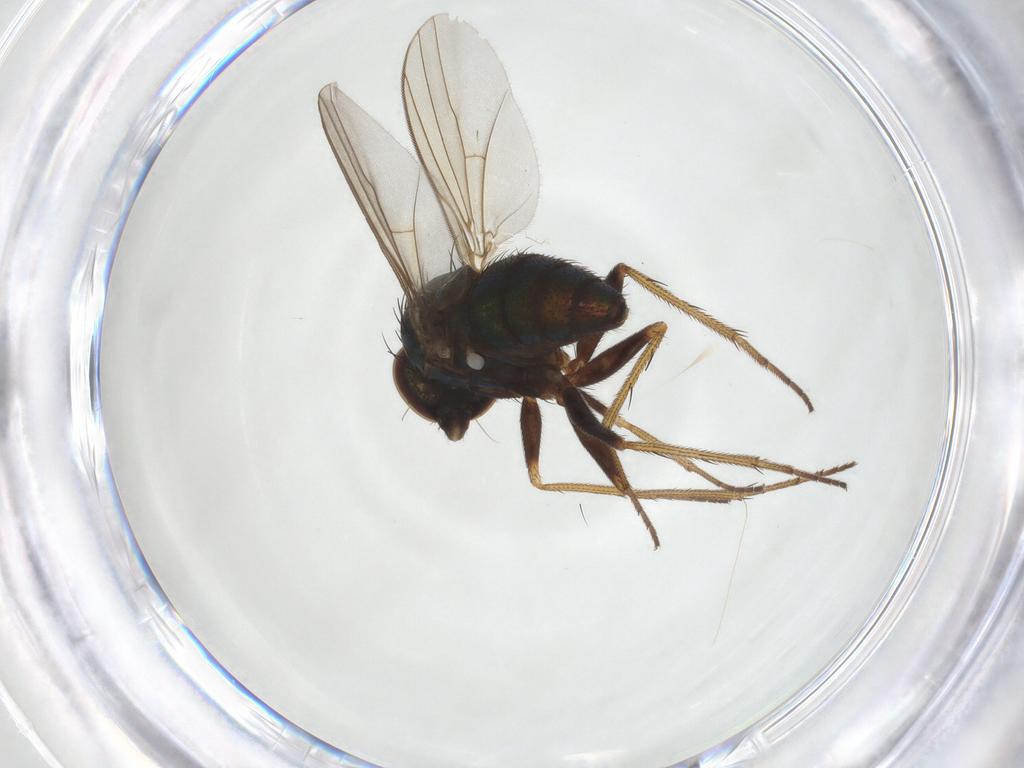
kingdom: Animalia
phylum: Arthropoda
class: Insecta
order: Diptera
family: Dolichopodidae
